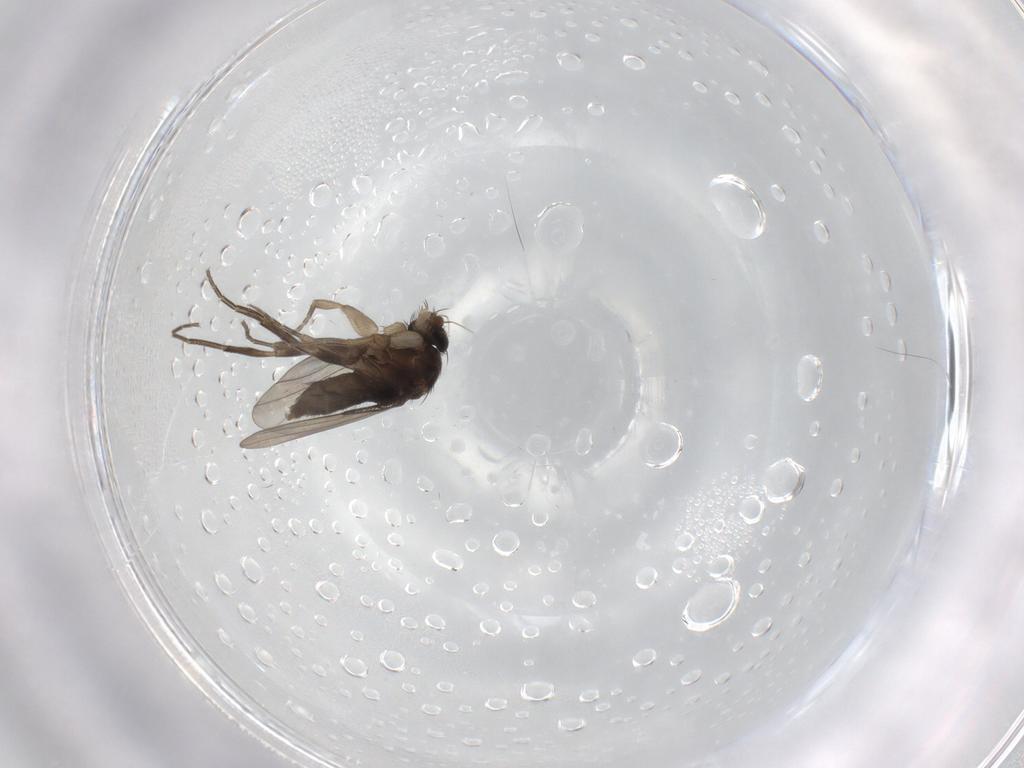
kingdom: Animalia
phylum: Arthropoda
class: Insecta
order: Diptera
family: Phoridae
